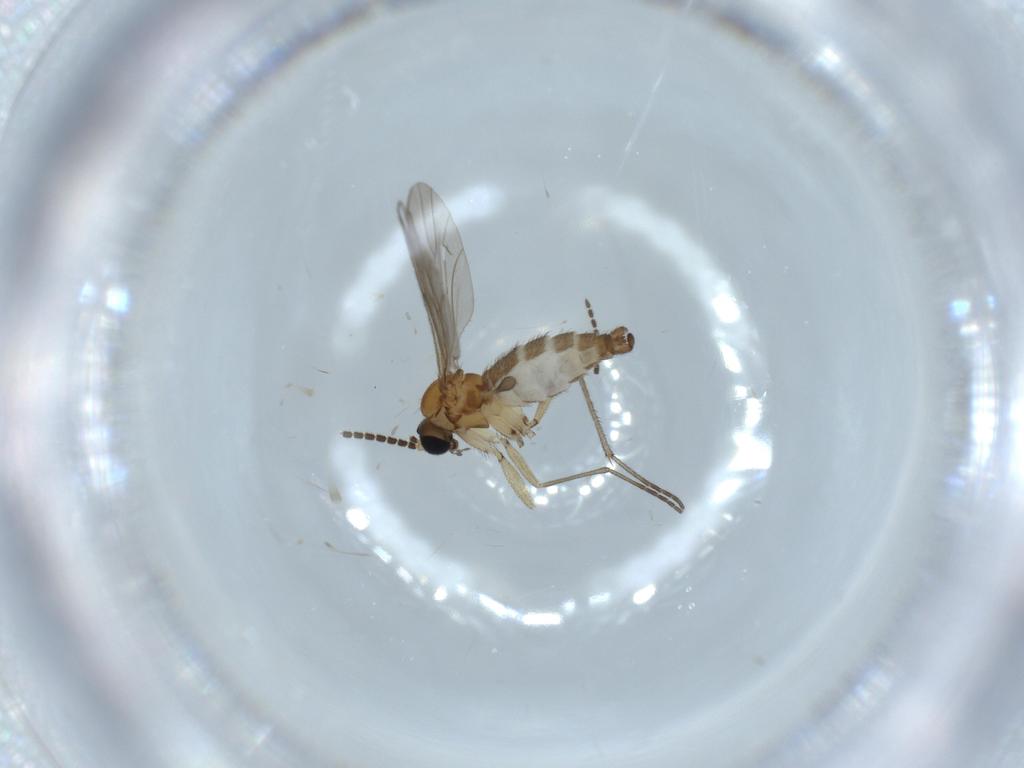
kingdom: Animalia
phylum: Arthropoda
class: Insecta
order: Diptera
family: Sciaridae
